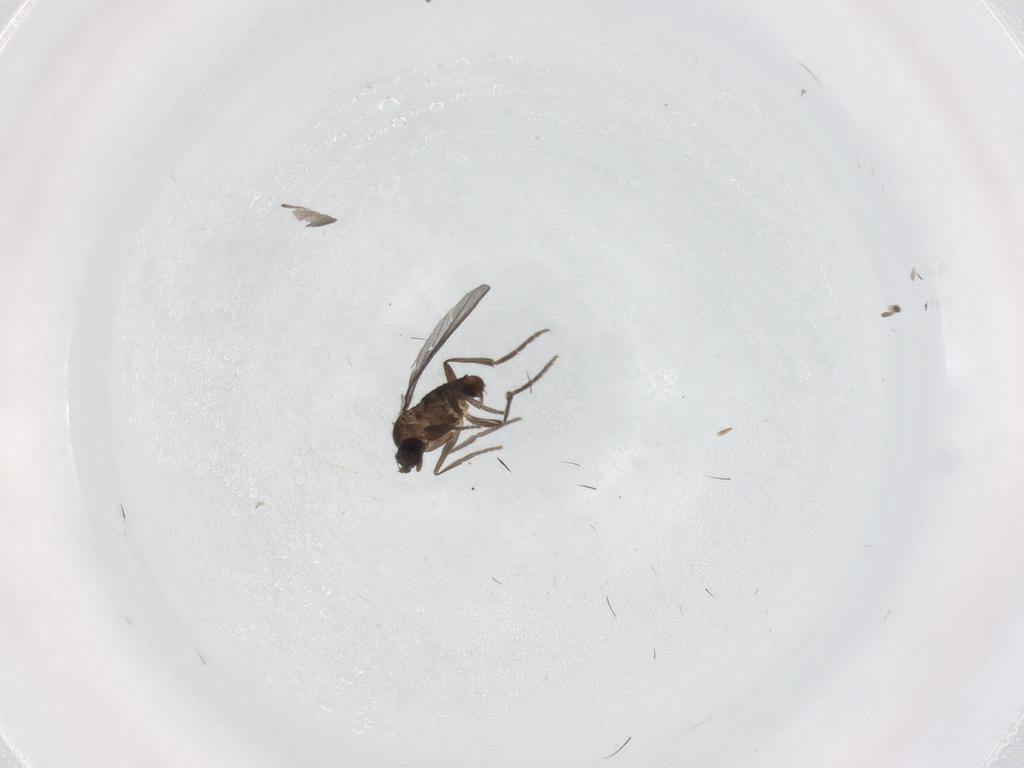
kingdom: Animalia
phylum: Arthropoda
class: Insecta
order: Diptera
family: Phoridae
